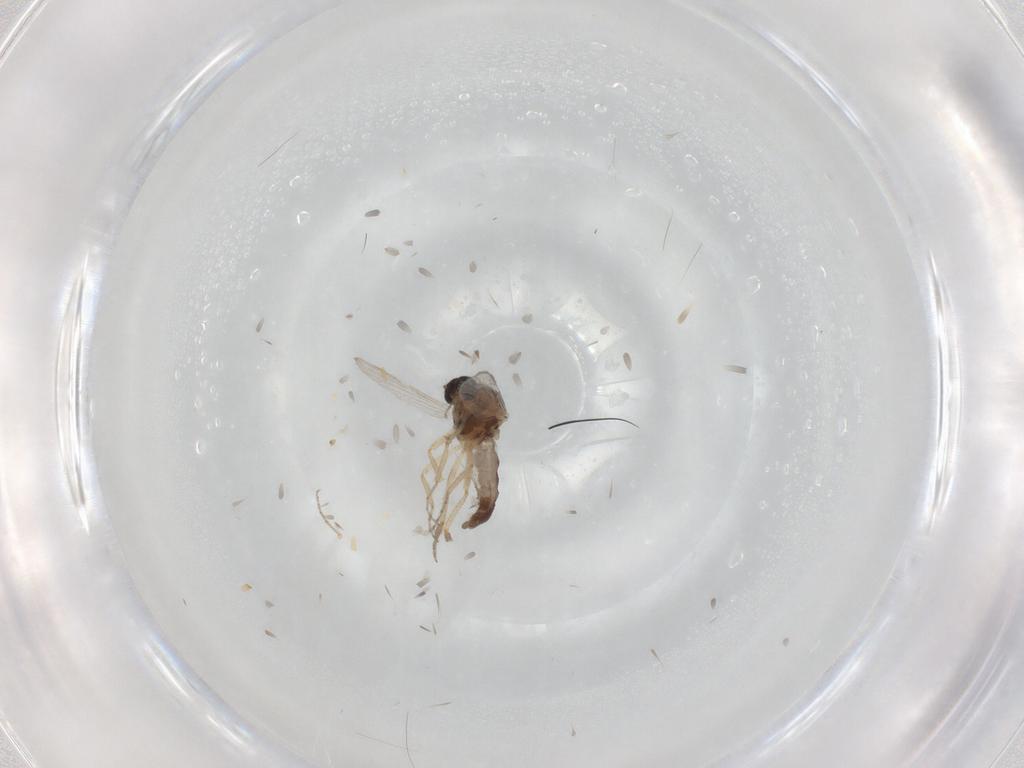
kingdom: Animalia
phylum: Arthropoda
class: Insecta
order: Diptera
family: Ceratopogonidae
